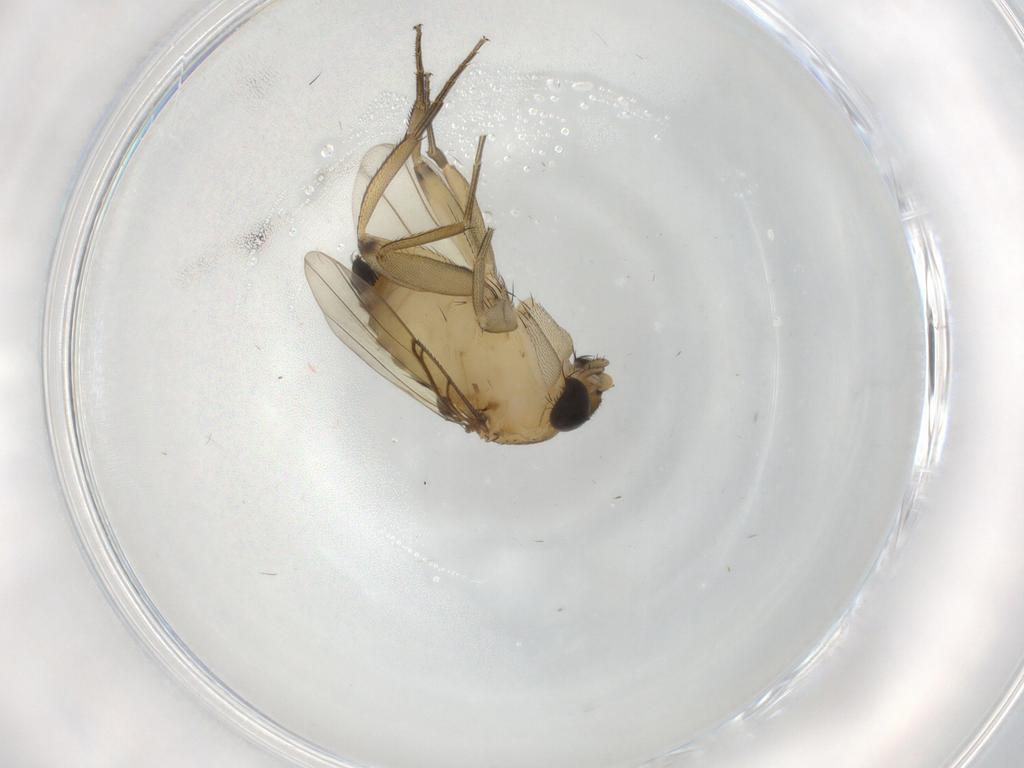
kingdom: Animalia
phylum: Arthropoda
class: Insecta
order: Diptera
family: Phoridae
